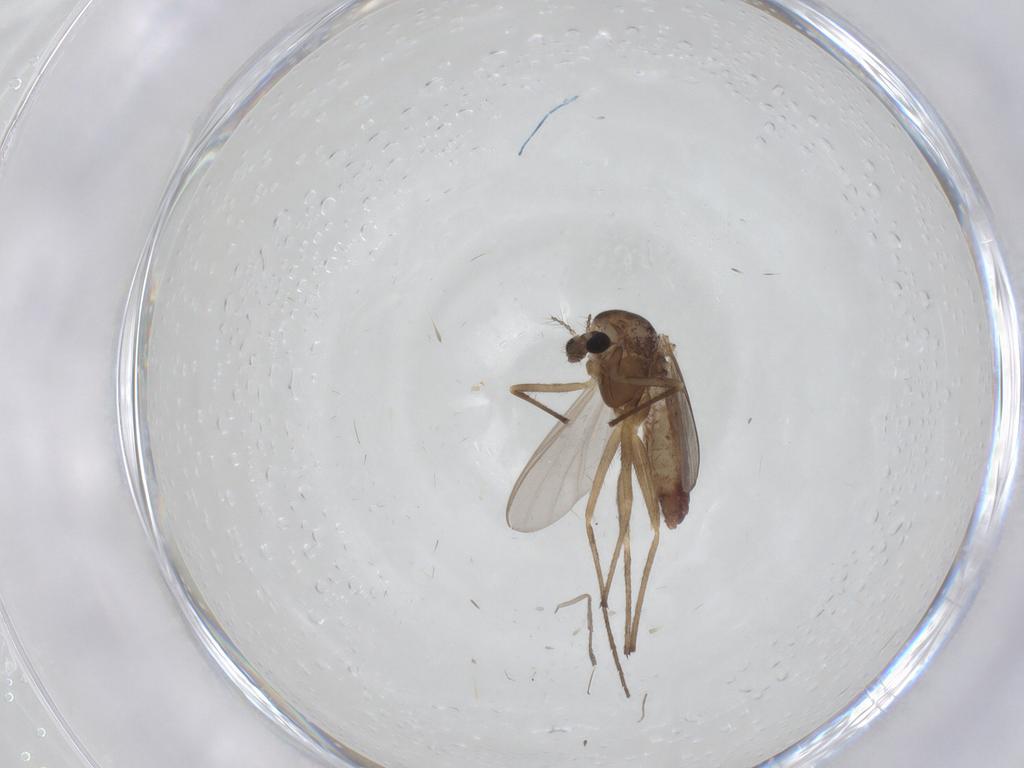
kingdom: Animalia
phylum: Arthropoda
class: Insecta
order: Diptera
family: Chironomidae
